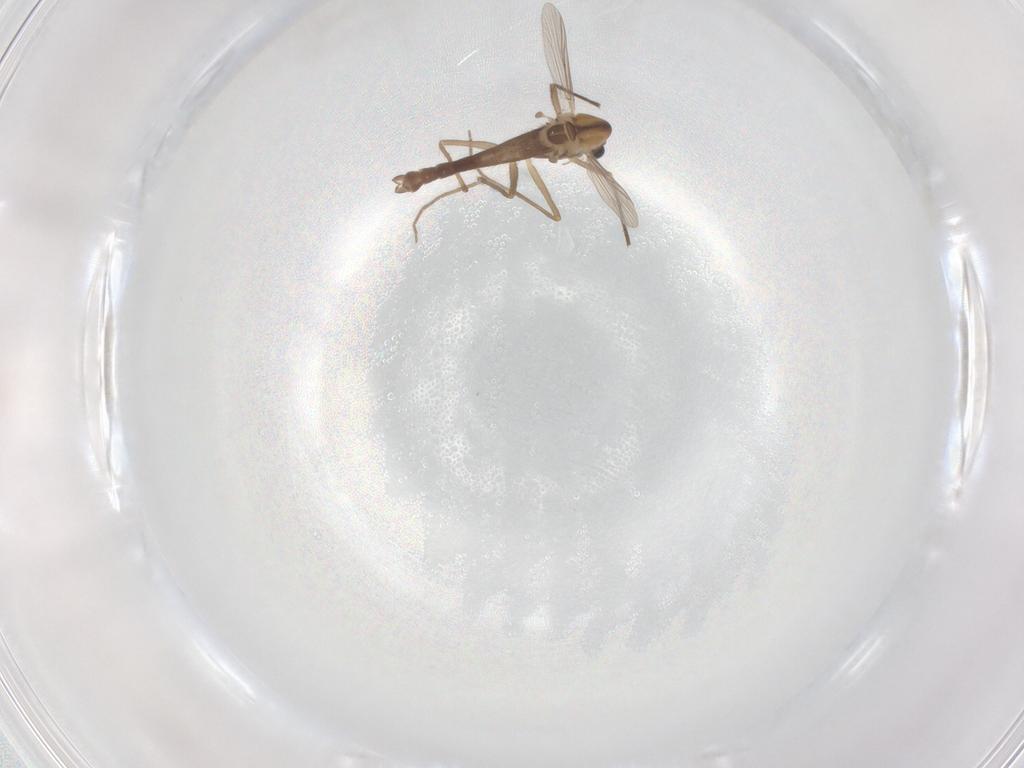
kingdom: Animalia
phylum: Arthropoda
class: Insecta
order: Diptera
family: Chironomidae
